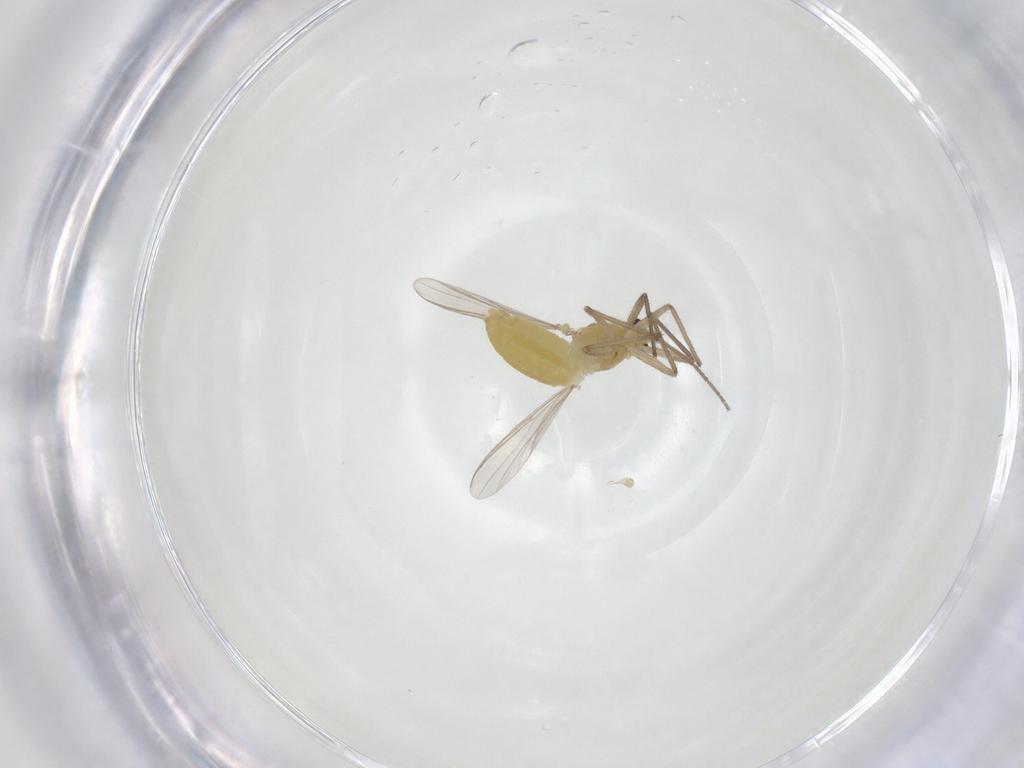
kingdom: Animalia
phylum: Arthropoda
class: Insecta
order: Diptera
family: Chironomidae
